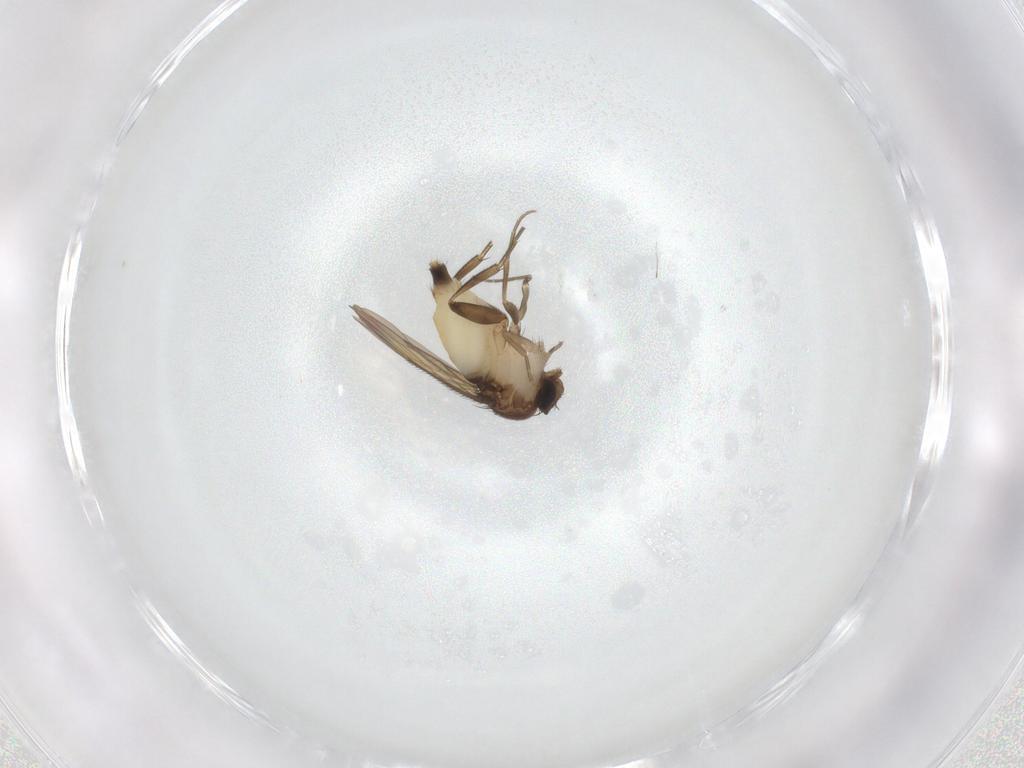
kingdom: Animalia
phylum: Arthropoda
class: Insecta
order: Diptera
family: Phoridae
